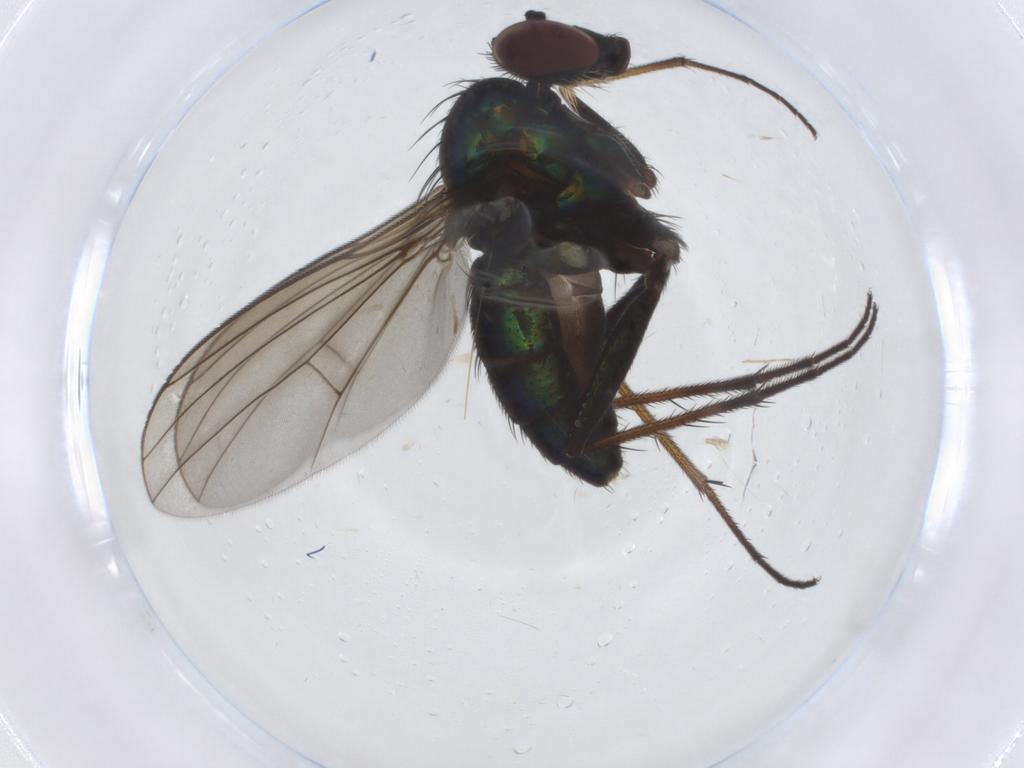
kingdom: Animalia
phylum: Arthropoda
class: Insecta
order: Diptera
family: Dolichopodidae
